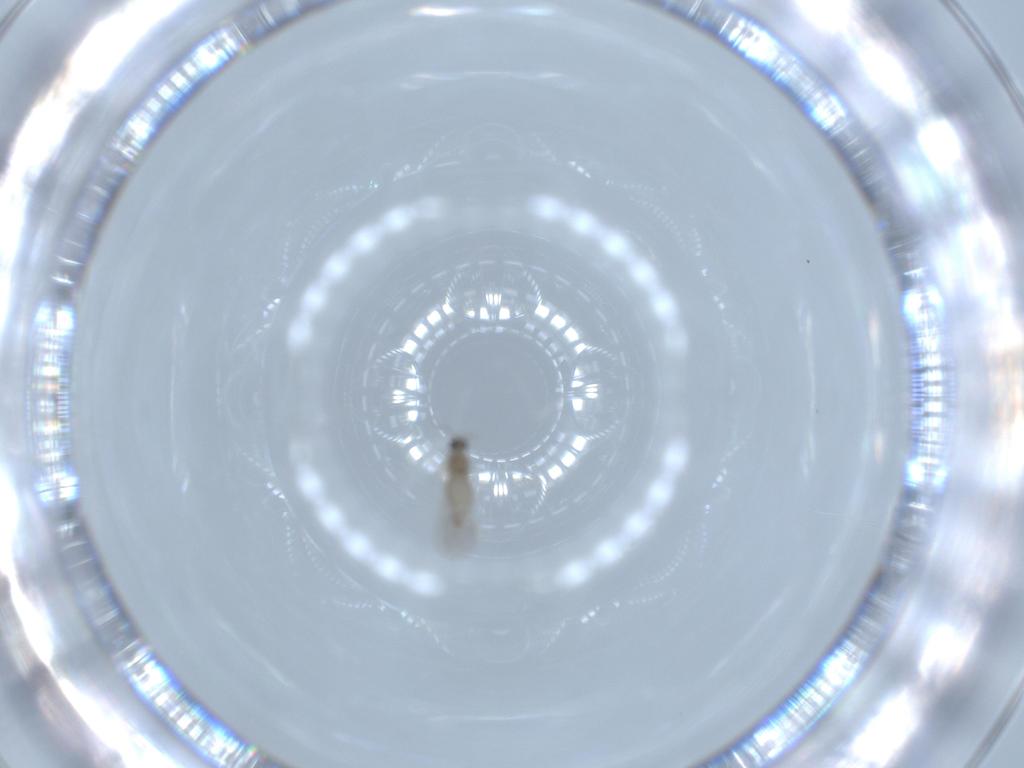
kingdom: Animalia
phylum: Arthropoda
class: Insecta
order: Diptera
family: Cecidomyiidae
